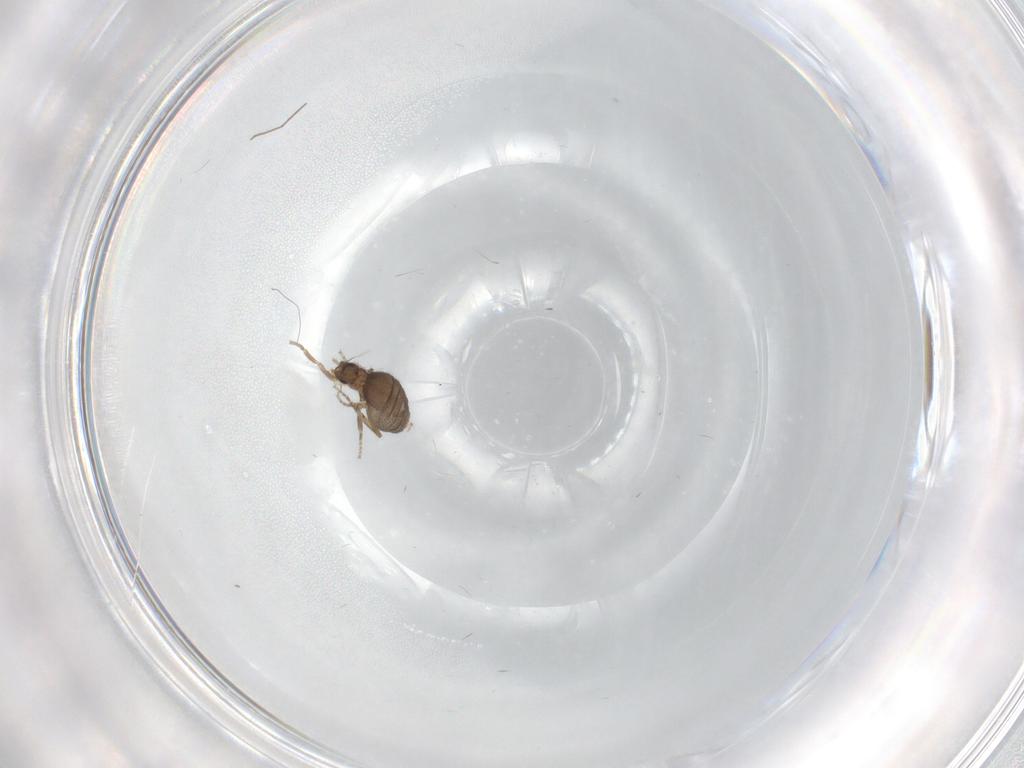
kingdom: Animalia
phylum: Arthropoda
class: Insecta
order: Diptera
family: Phoridae
